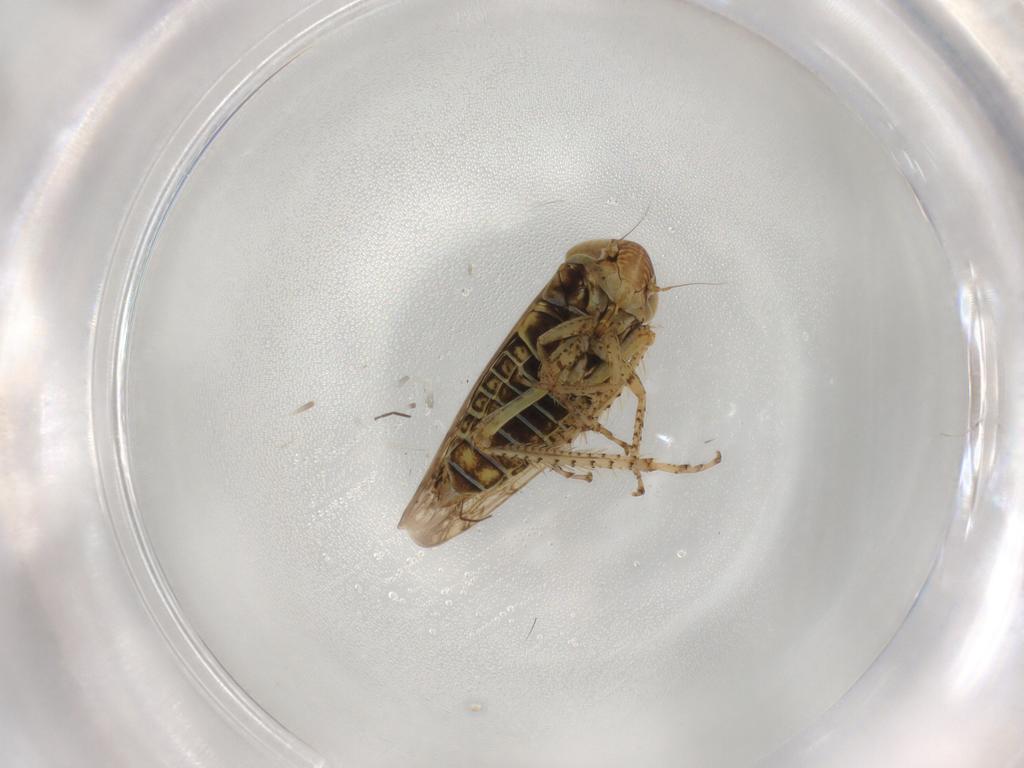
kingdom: Animalia
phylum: Arthropoda
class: Insecta
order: Hemiptera
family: Cicadellidae
